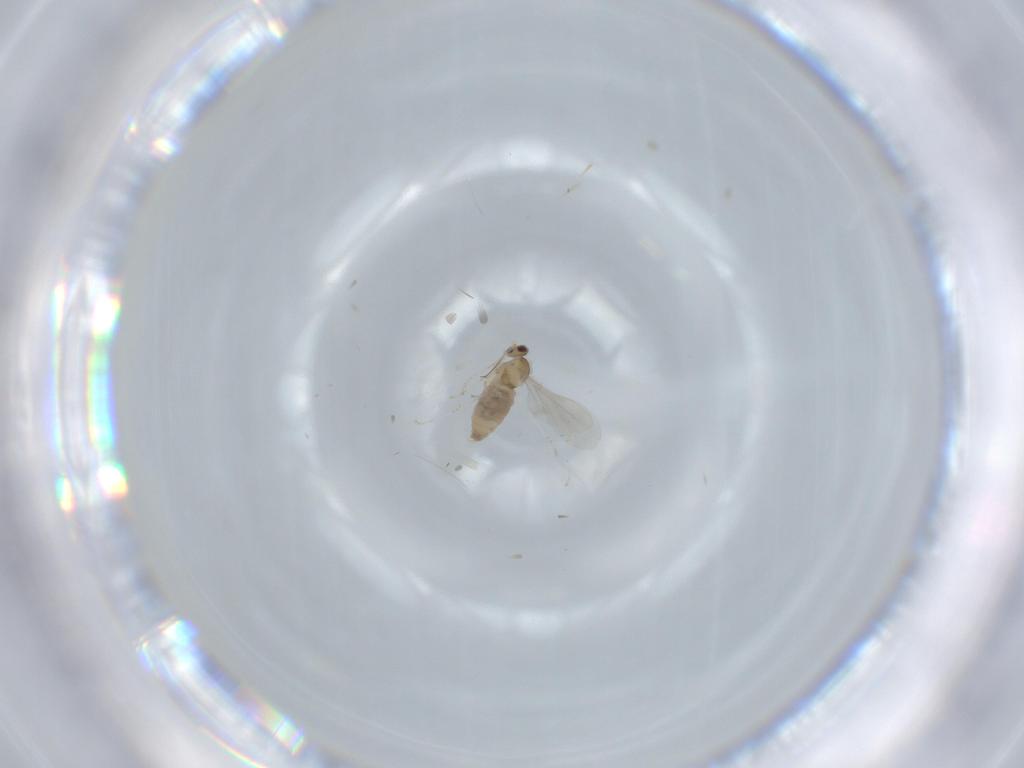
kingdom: Animalia
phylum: Arthropoda
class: Insecta
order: Diptera
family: Cecidomyiidae
